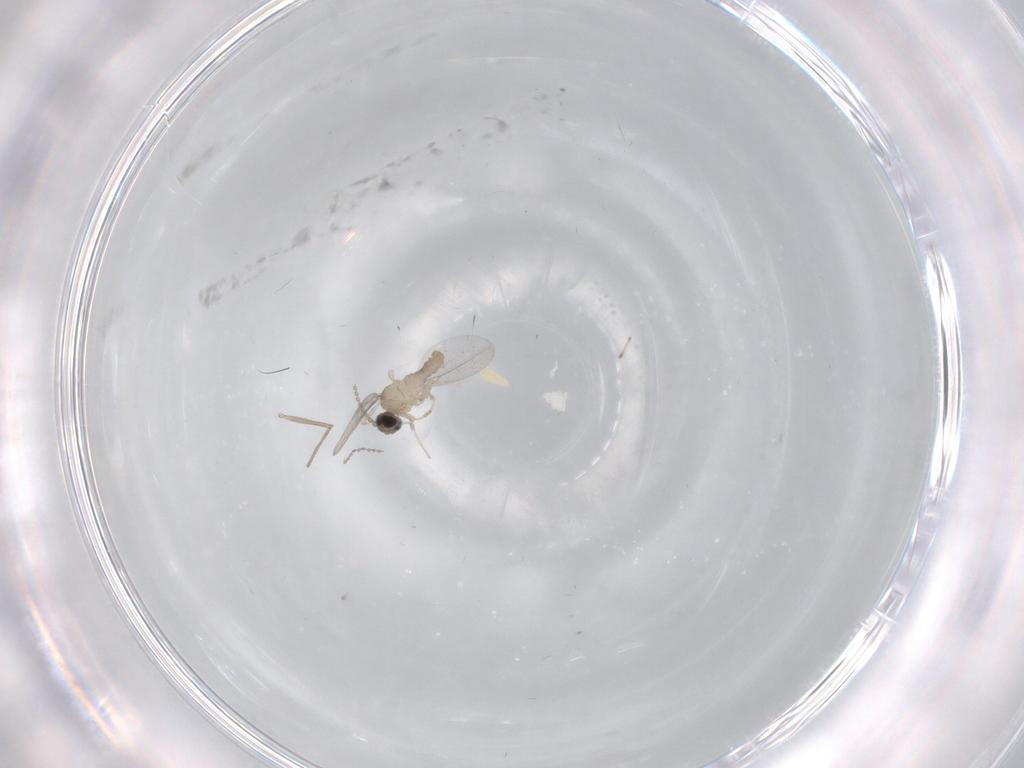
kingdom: Animalia
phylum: Arthropoda
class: Insecta
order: Diptera
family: Cecidomyiidae
